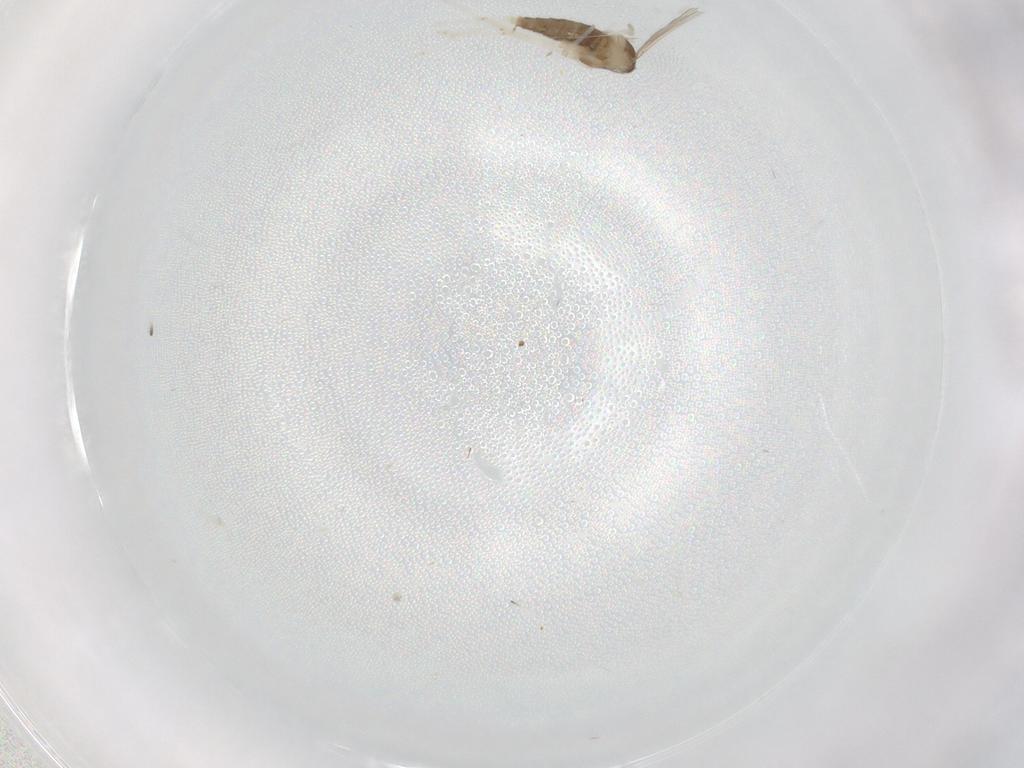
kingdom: Animalia
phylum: Arthropoda
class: Insecta
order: Diptera
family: Cecidomyiidae
